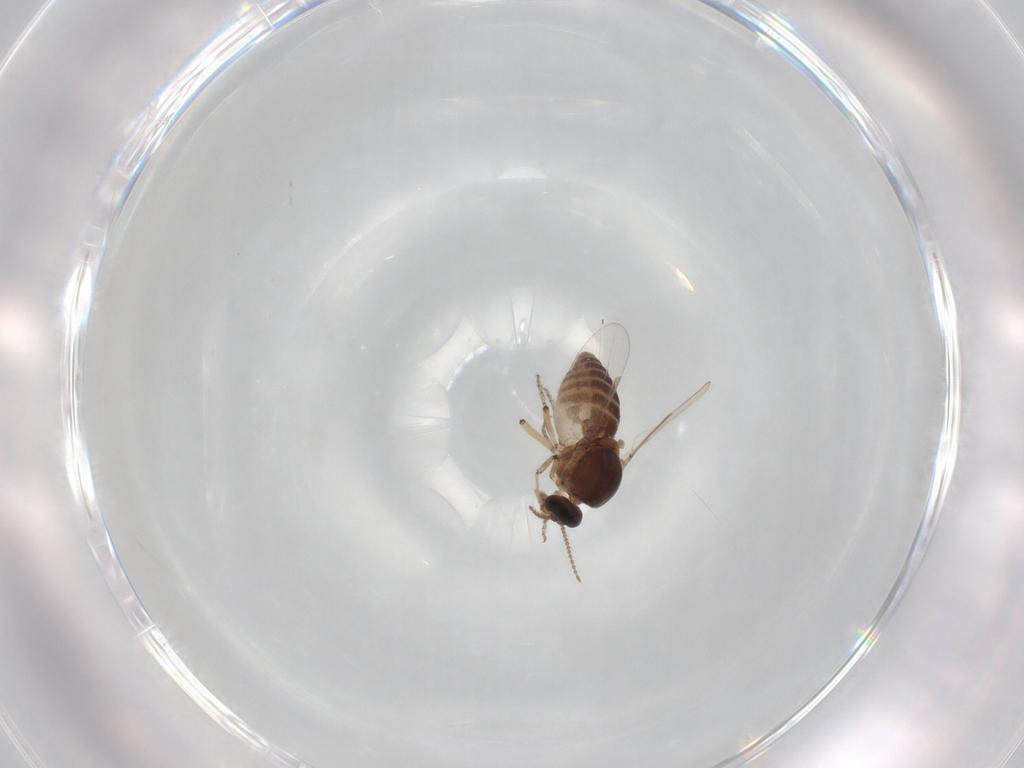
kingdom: Animalia
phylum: Arthropoda
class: Insecta
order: Diptera
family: Ceratopogonidae
